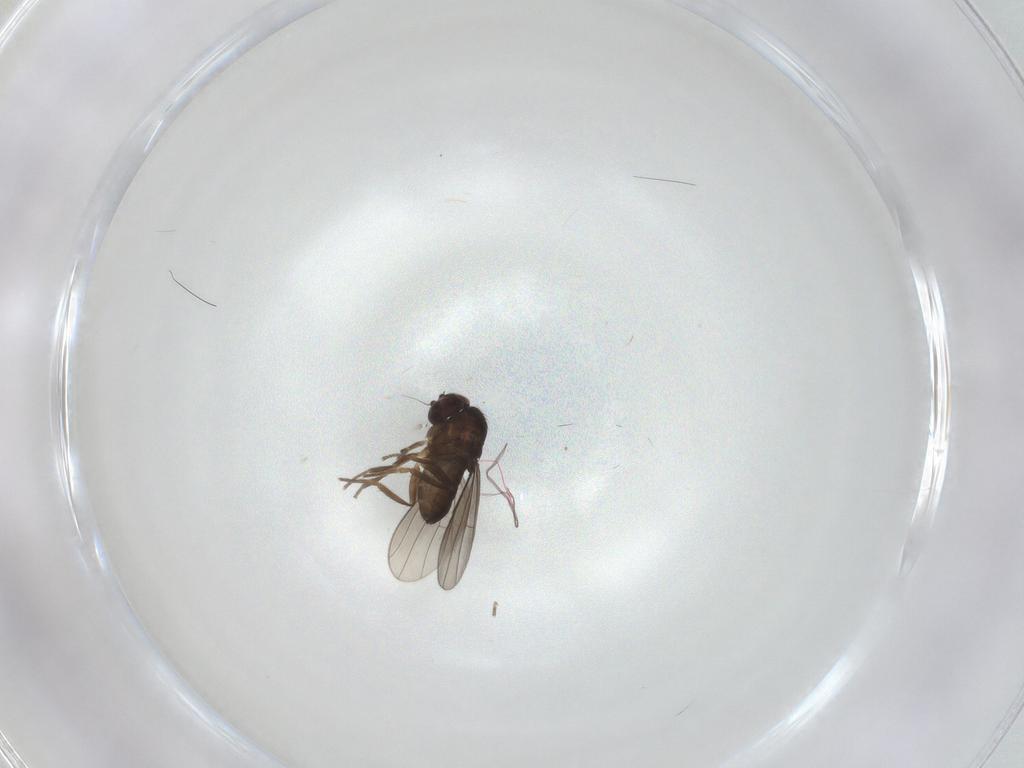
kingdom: Animalia
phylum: Arthropoda
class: Insecta
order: Diptera
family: Dolichopodidae
